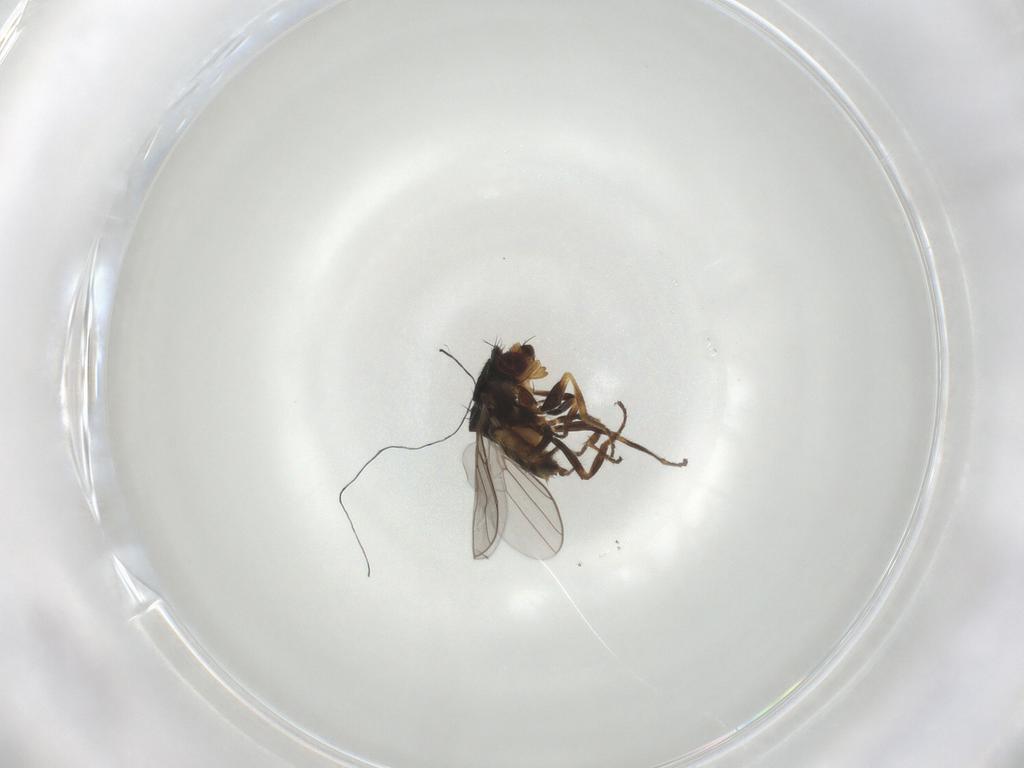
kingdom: Animalia
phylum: Arthropoda
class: Insecta
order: Diptera
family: Chloropidae
